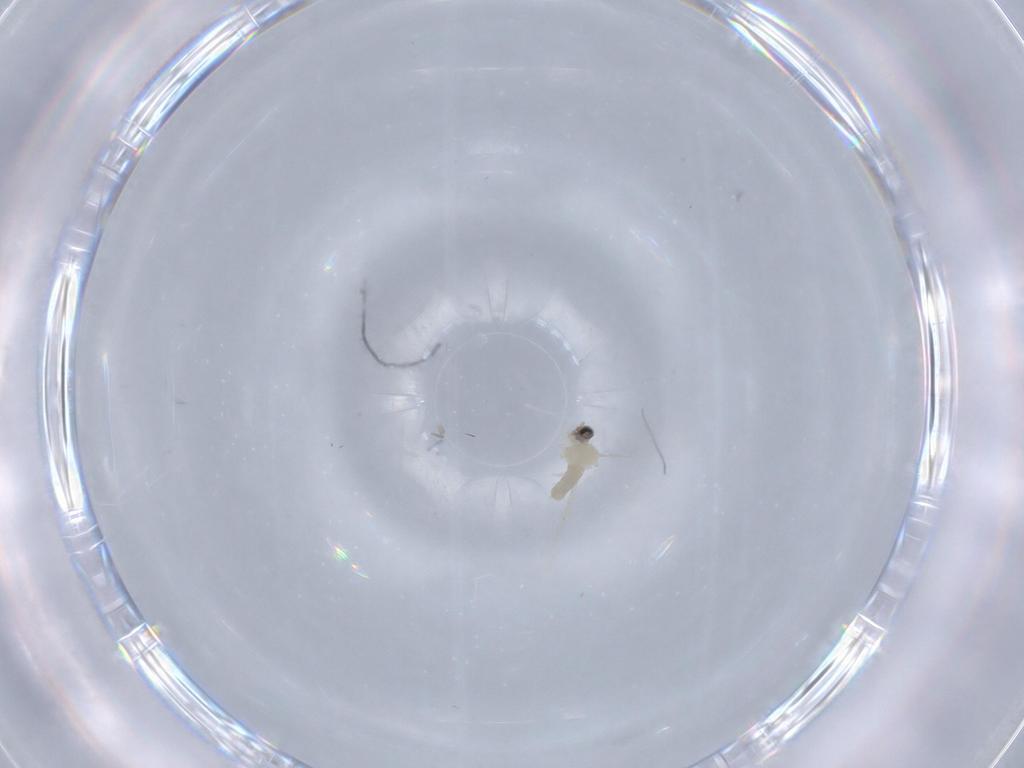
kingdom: Animalia
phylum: Arthropoda
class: Insecta
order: Diptera
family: Cecidomyiidae
